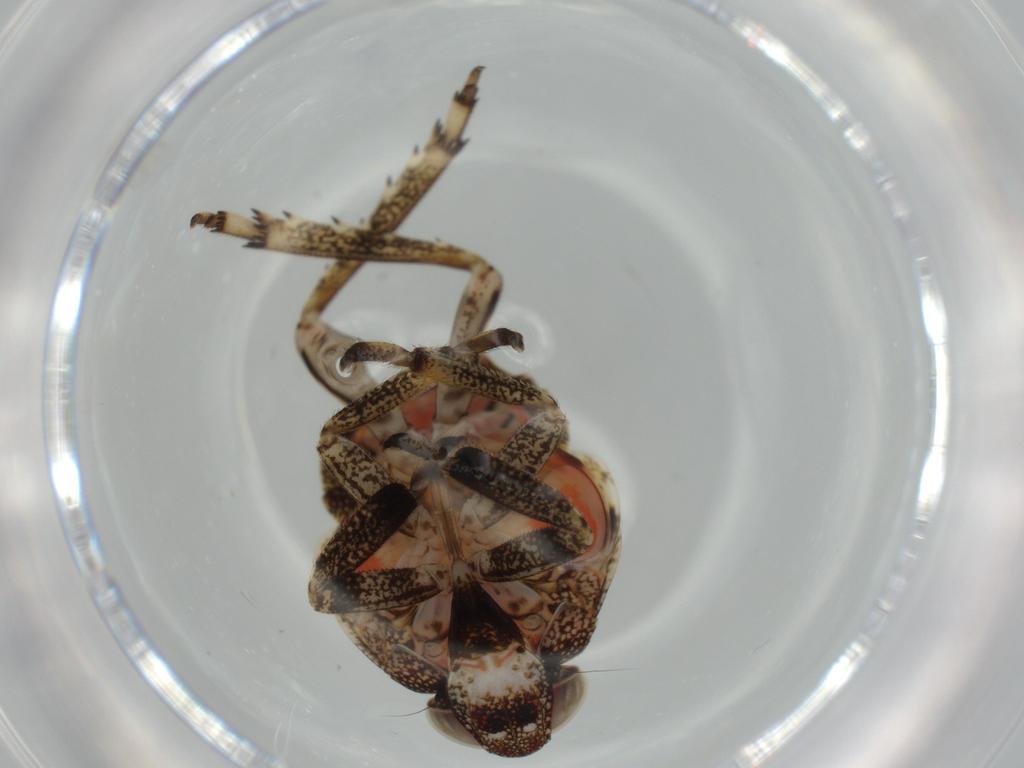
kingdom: Animalia
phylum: Arthropoda
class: Insecta
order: Hemiptera
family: Issidae
